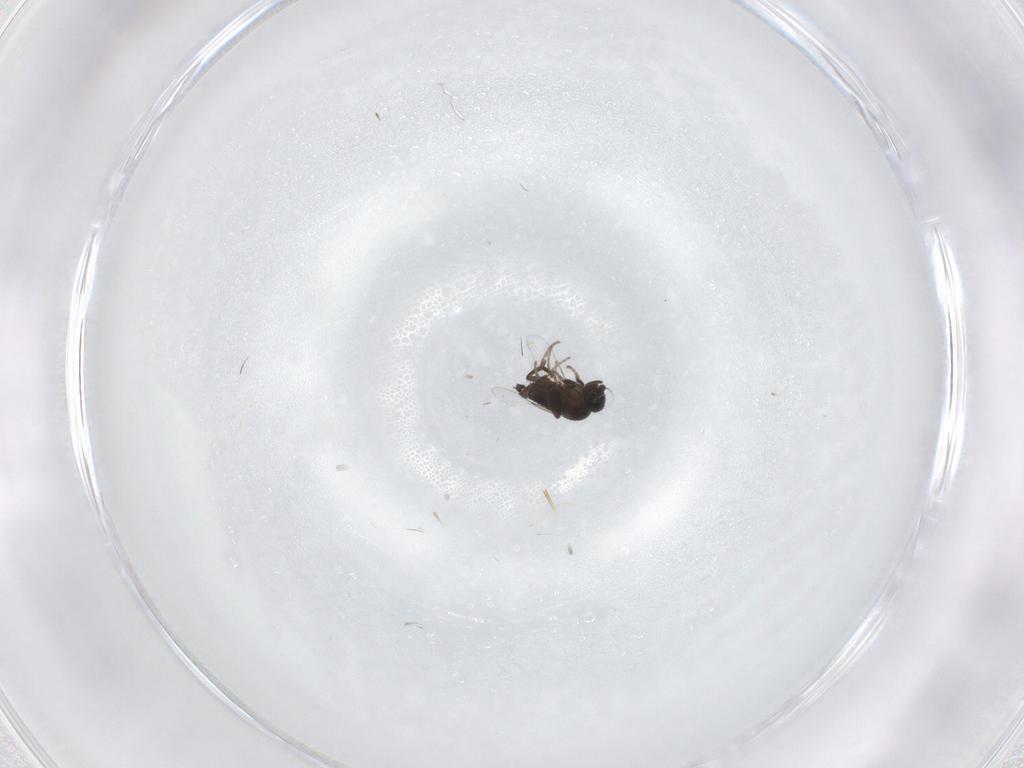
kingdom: Animalia
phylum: Arthropoda
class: Insecta
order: Diptera
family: Phoridae
